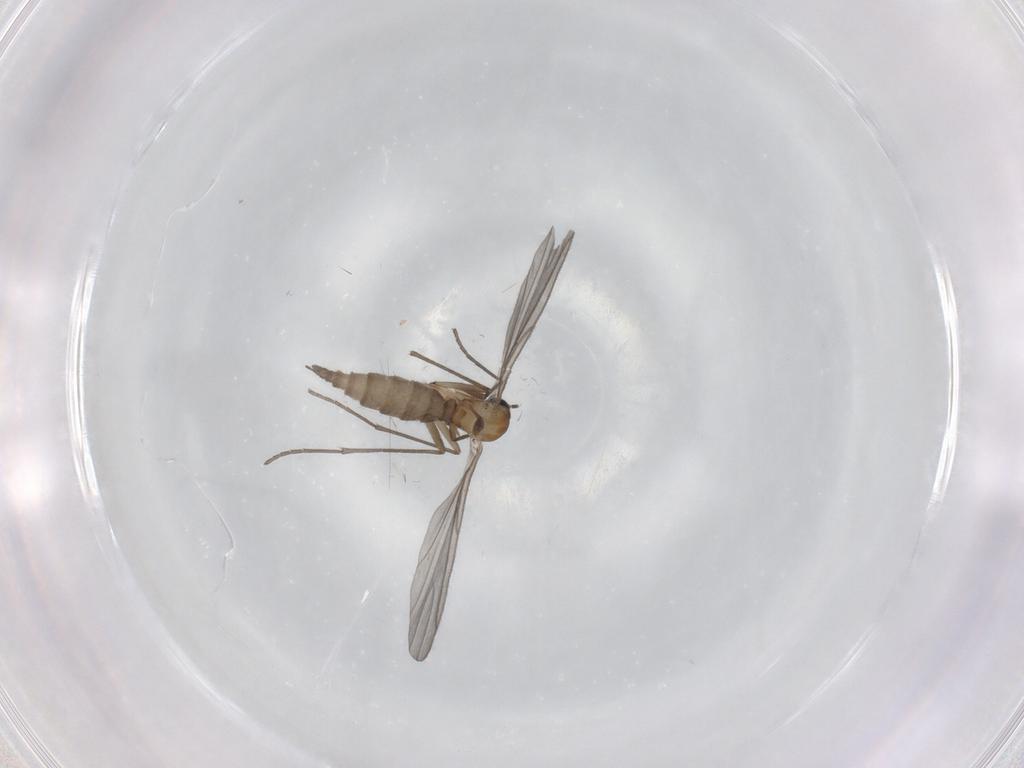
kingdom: Animalia
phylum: Arthropoda
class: Insecta
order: Diptera
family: Sciaridae
